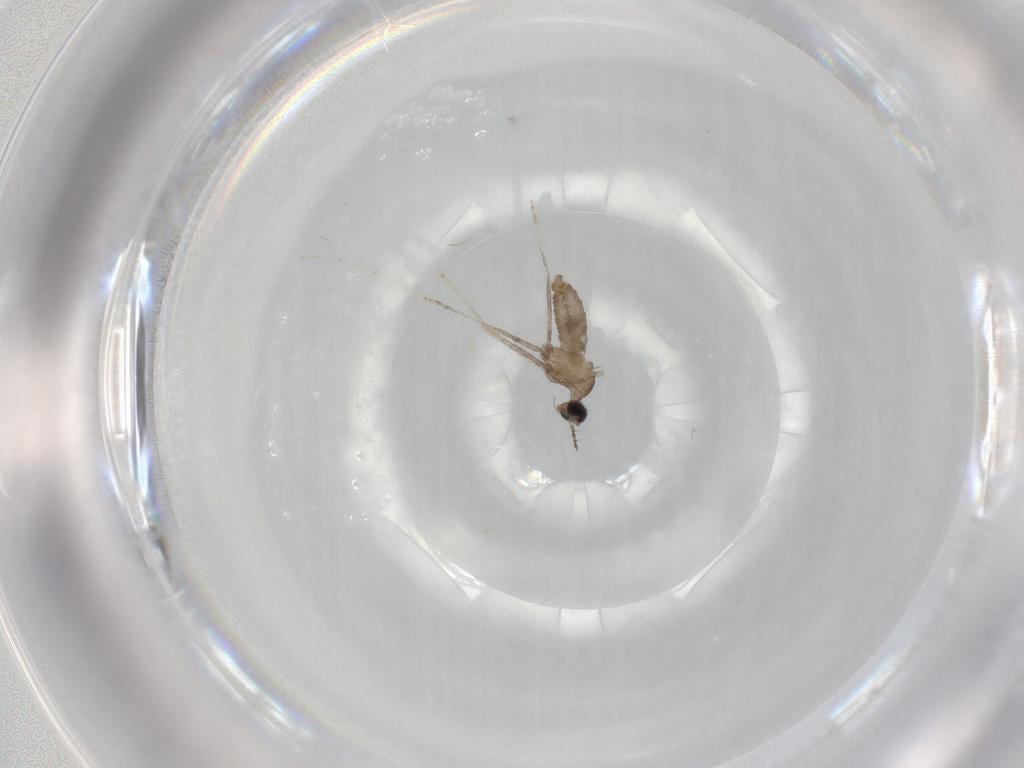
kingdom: Animalia
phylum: Arthropoda
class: Insecta
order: Diptera
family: Cecidomyiidae
